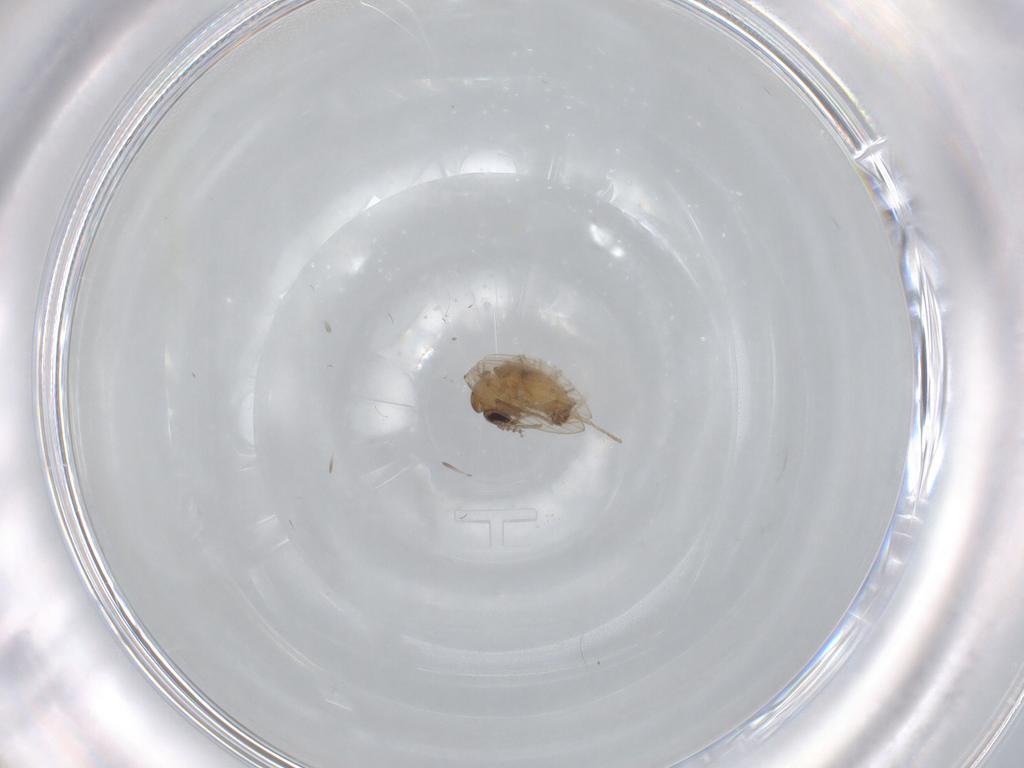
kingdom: Animalia
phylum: Arthropoda
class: Insecta
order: Diptera
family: Psychodidae
